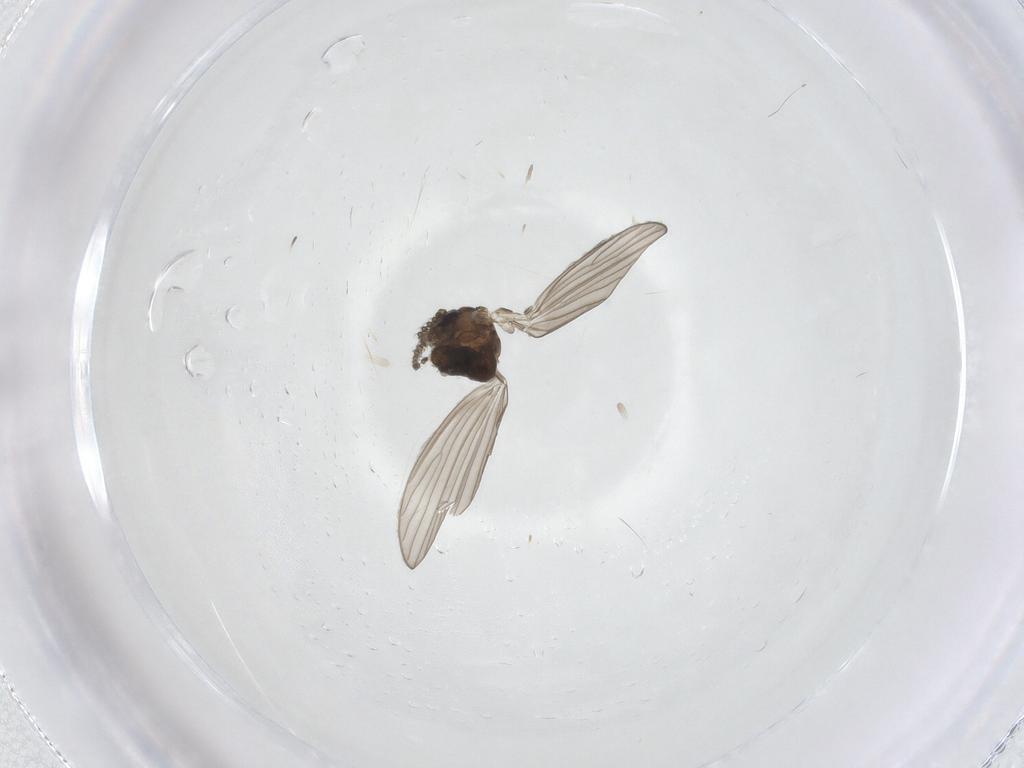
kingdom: Animalia
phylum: Arthropoda
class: Insecta
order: Diptera
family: Psychodidae
